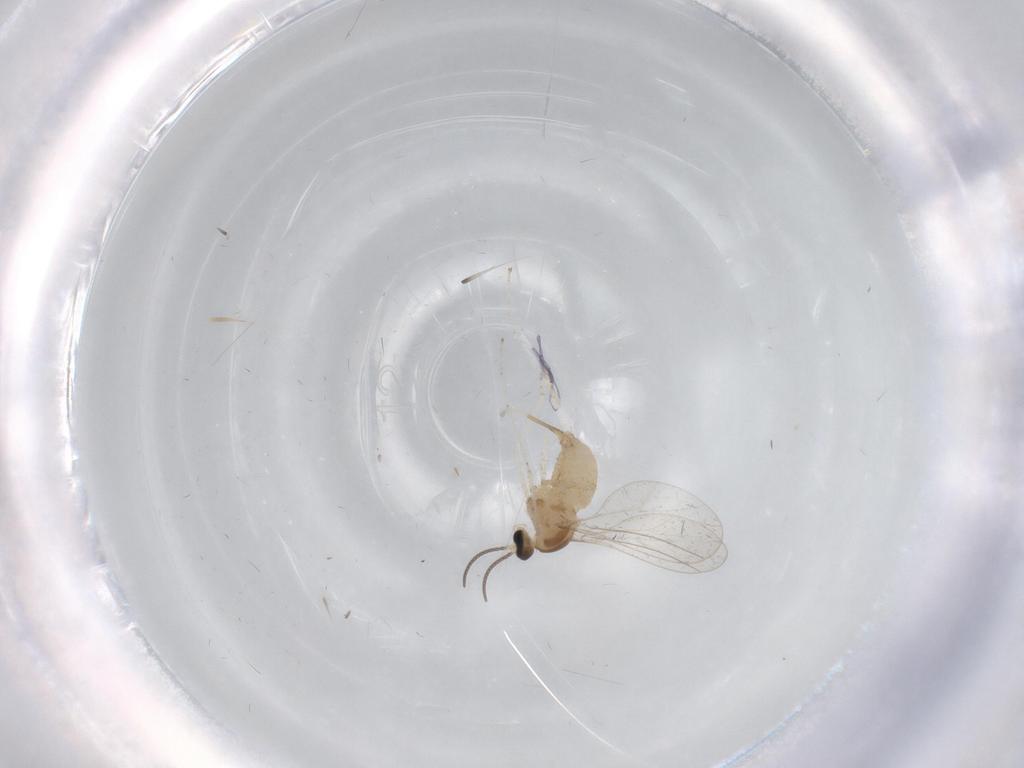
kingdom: Animalia
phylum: Arthropoda
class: Insecta
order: Diptera
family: Cecidomyiidae
